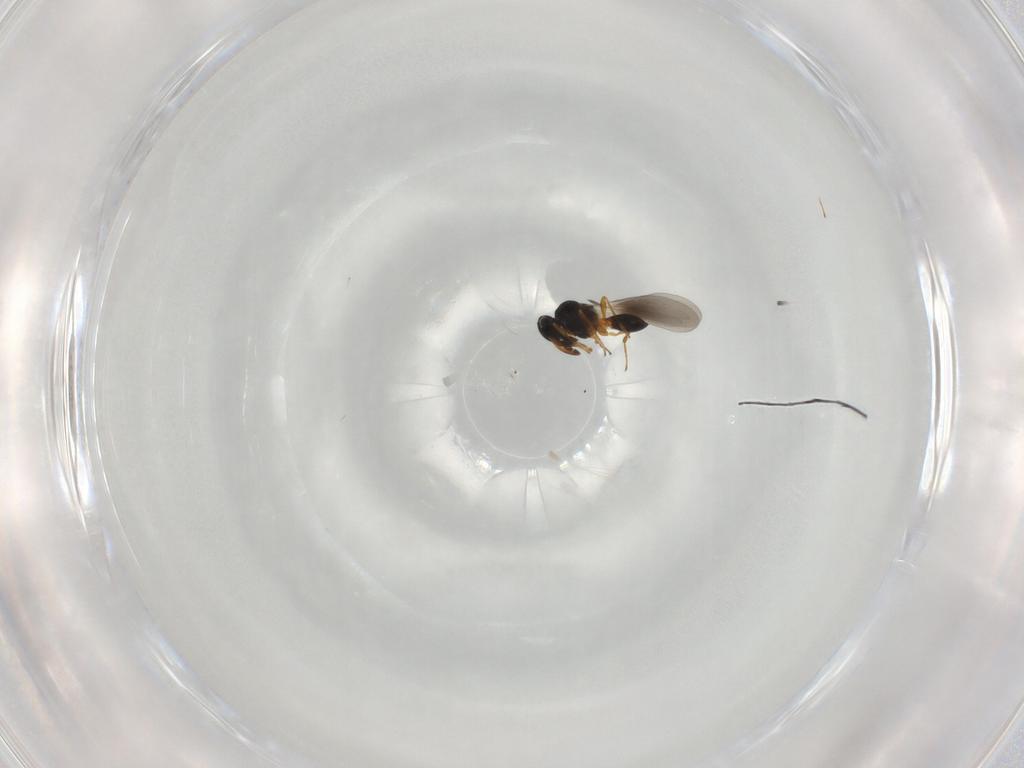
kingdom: Animalia
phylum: Arthropoda
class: Insecta
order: Hymenoptera
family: Platygastridae
